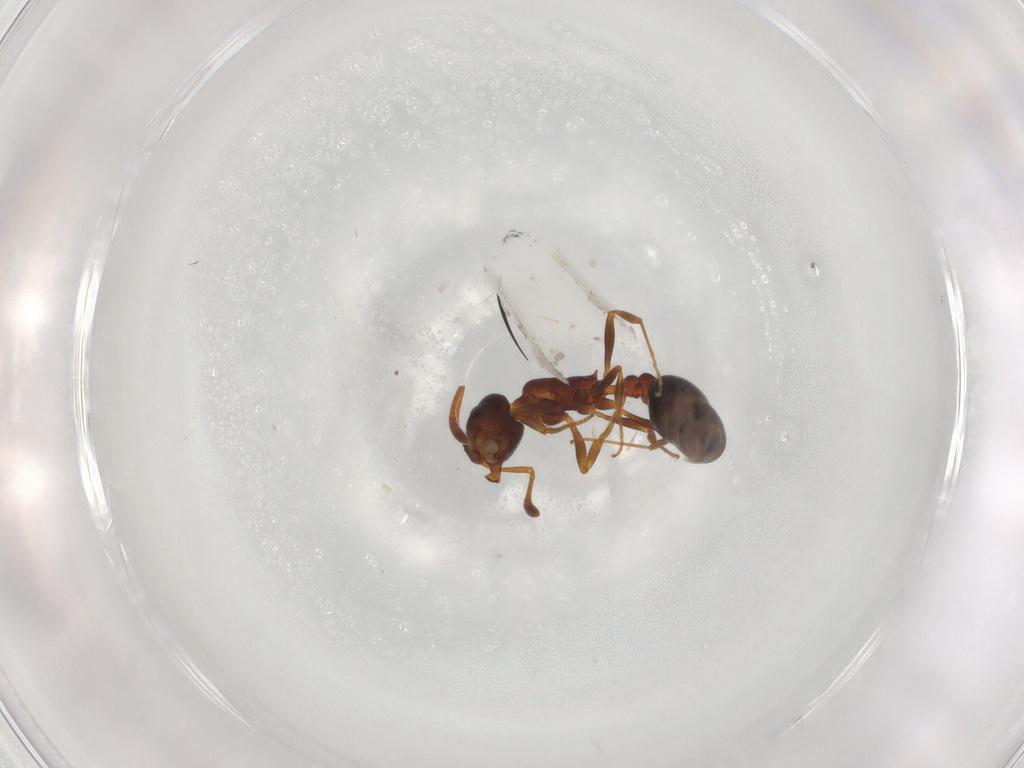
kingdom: Animalia
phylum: Arthropoda
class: Insecta
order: Hymenoptera
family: Formicidae
